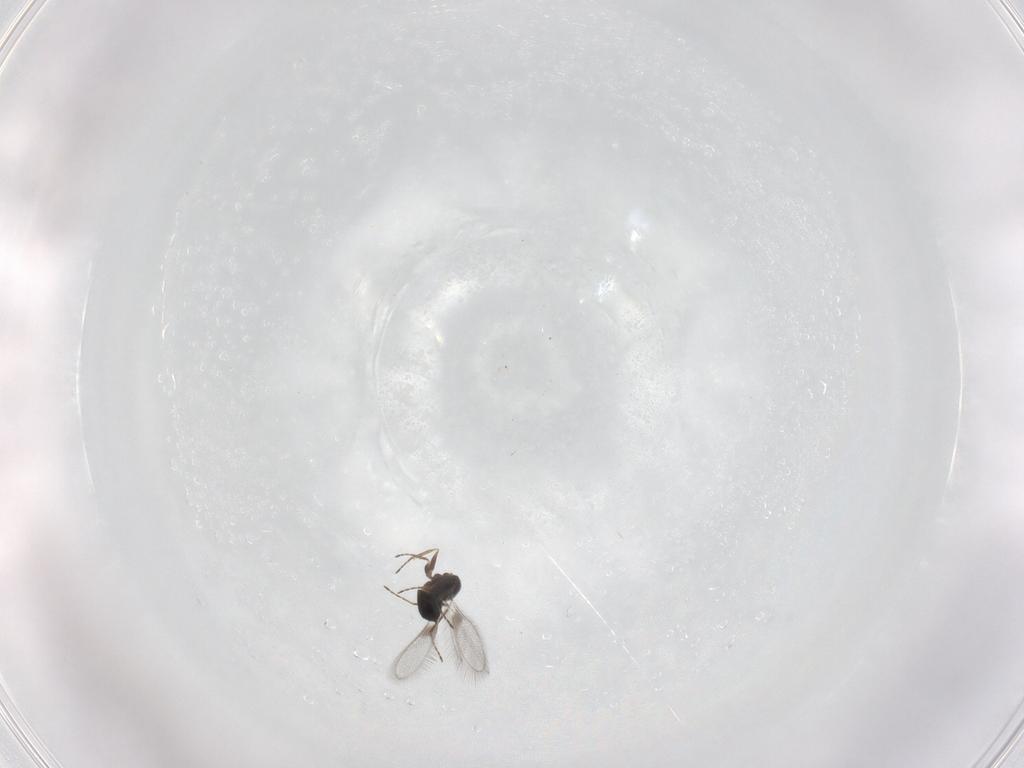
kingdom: Animalia
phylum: Arthropoda
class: Insecta
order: Hymenoptera
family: Mymaridae
